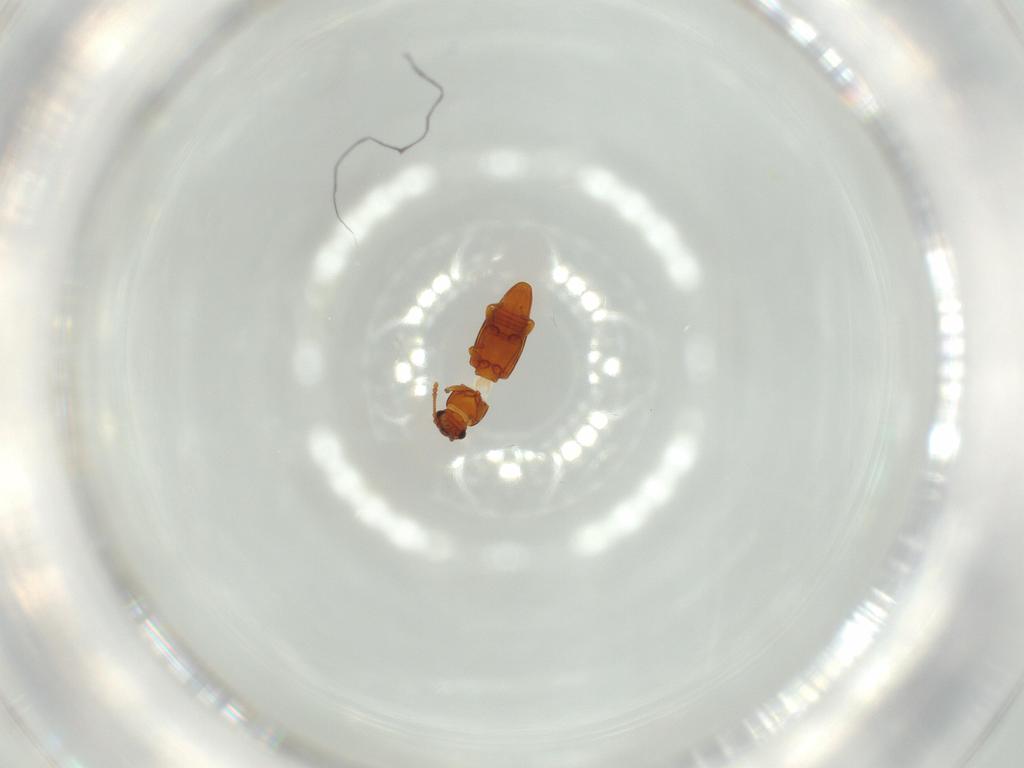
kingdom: Animalia
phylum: Arthropoda
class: Insecta
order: Coleoptera
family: Smicripidae
